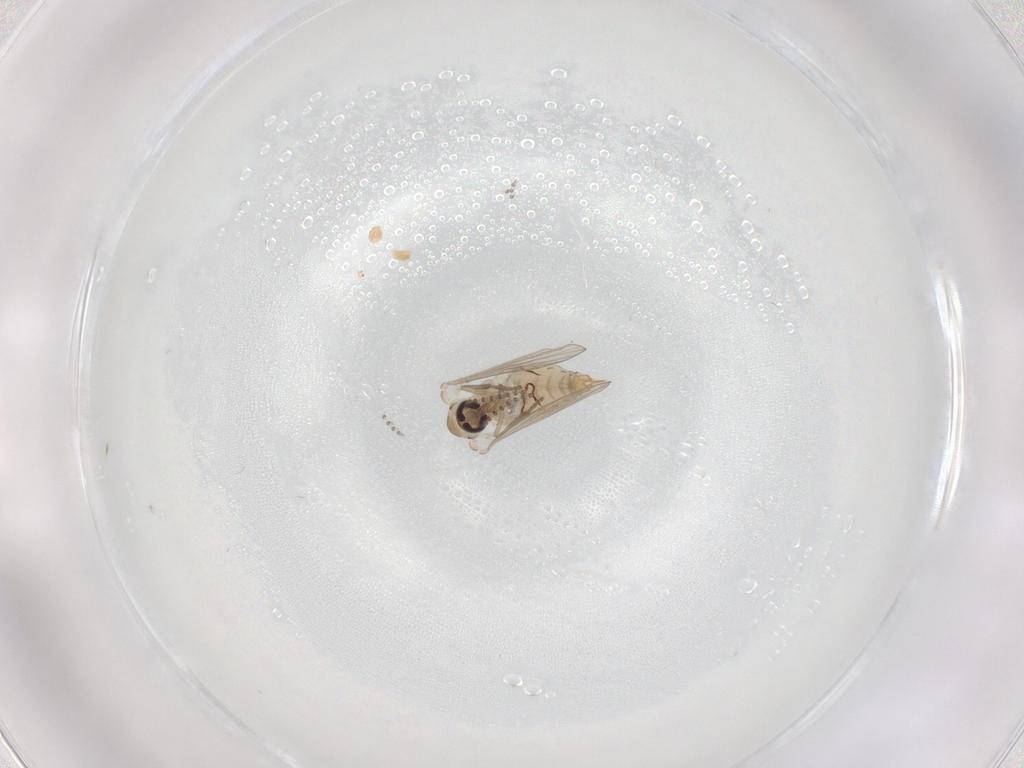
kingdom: Animalia
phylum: Arthropoda
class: Insecta
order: Diptera
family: Psychodidae
